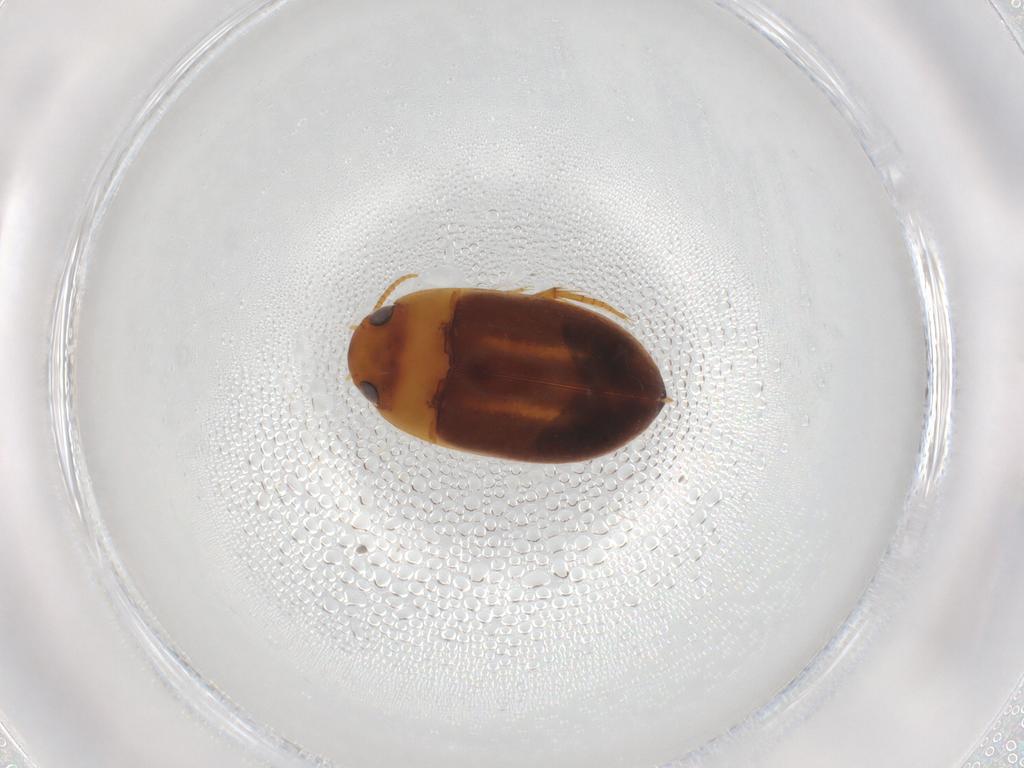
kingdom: Animalia
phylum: Arthropoda
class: Insecta
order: Coleoptera
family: Noteridae
